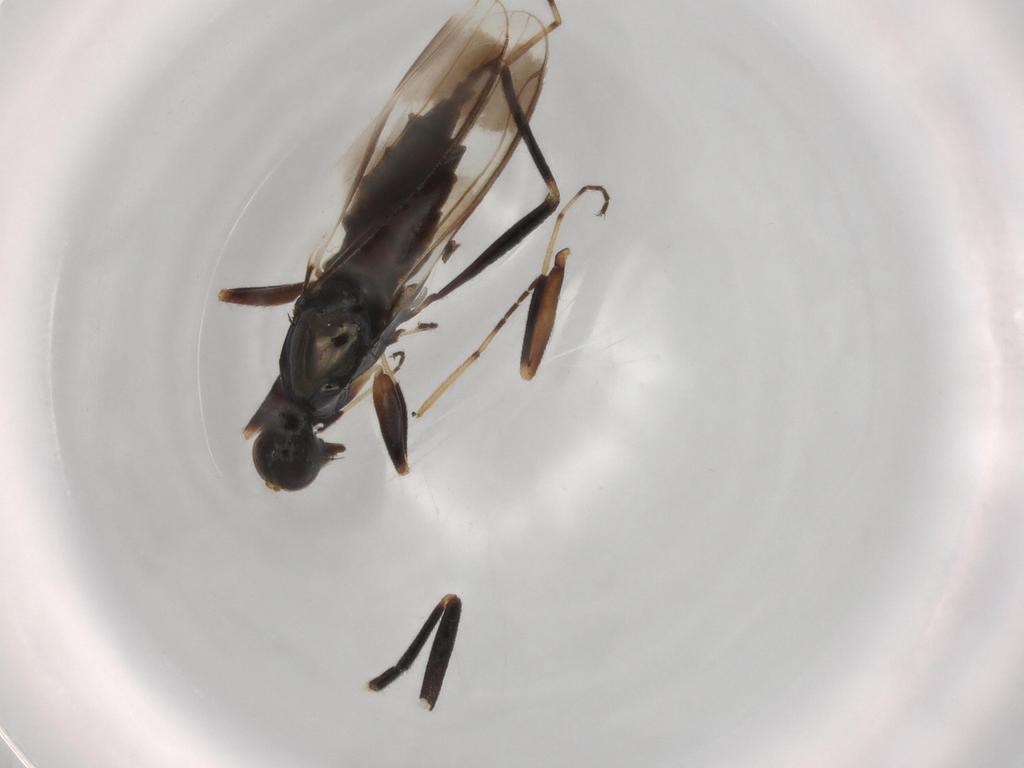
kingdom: Animalia
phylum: Arthropoda
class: Insecta
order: Diptera
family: Hybotidae
